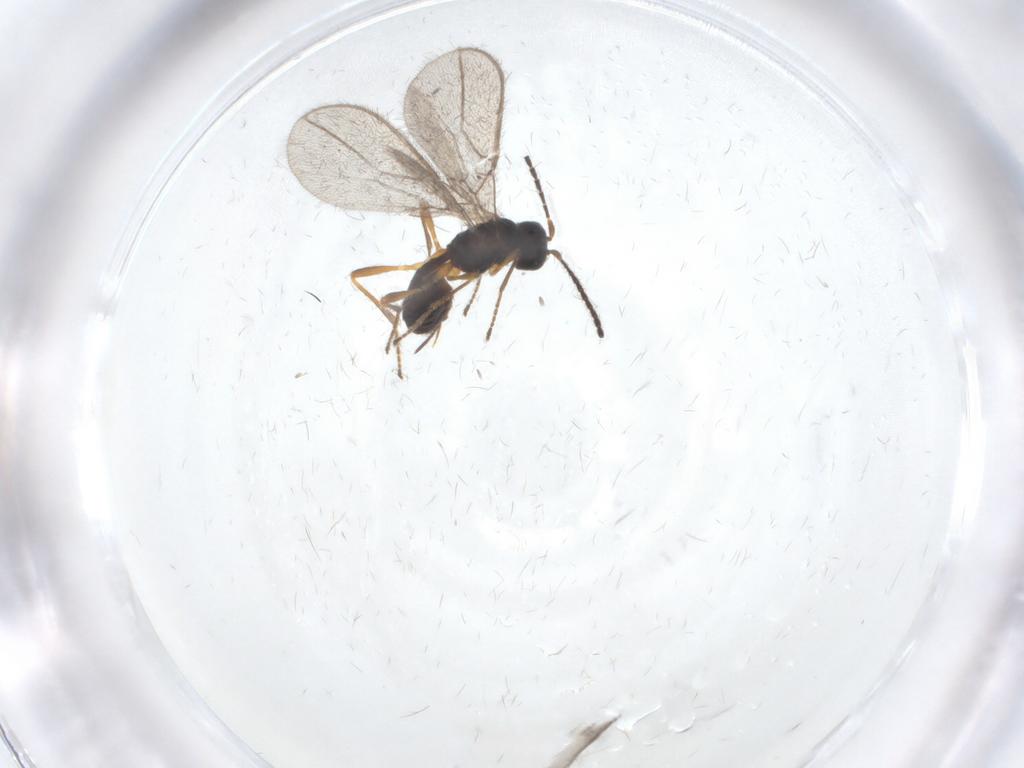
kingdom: Animalia
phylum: Arthropoda
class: Insecta
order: Hymenoptera
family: Braconidae
